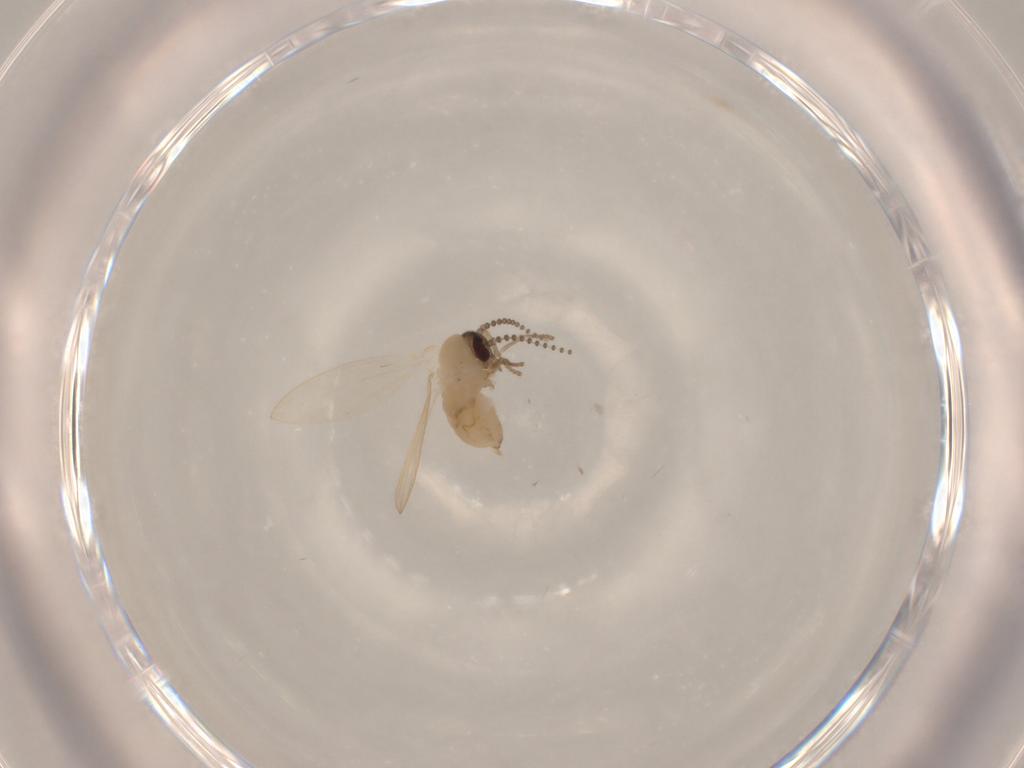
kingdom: Animalia
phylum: Arthropoda
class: Insecta
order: Diptera
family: Psychodidae
